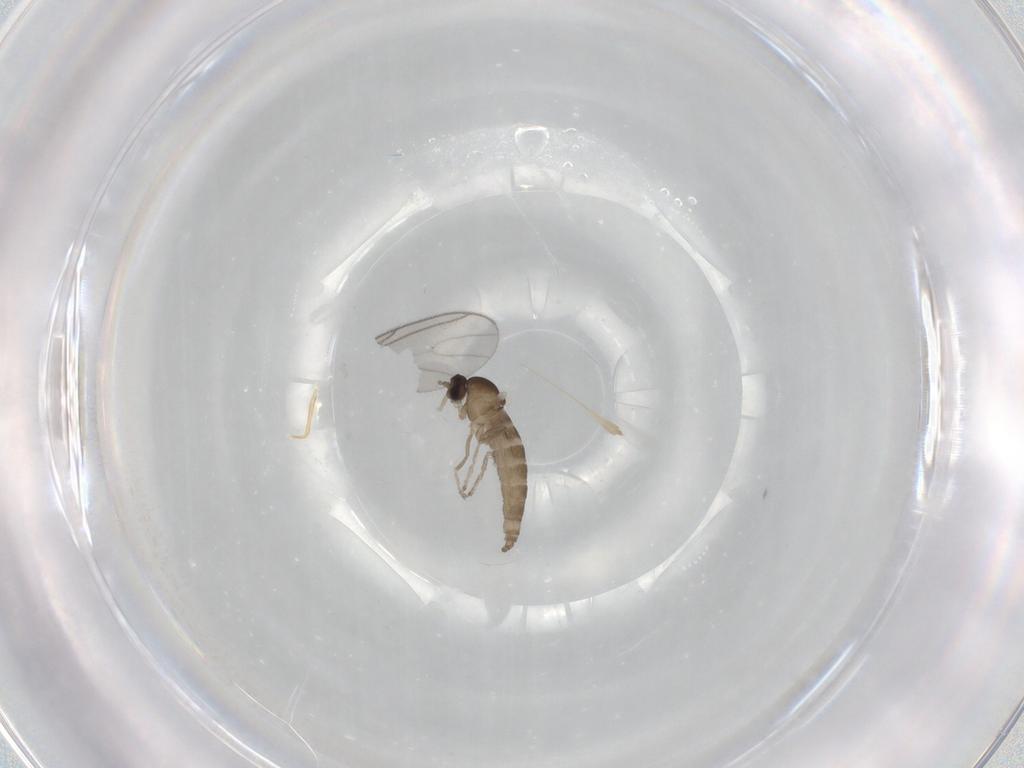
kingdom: Animalia
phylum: Arthropoda
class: Insecta
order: Diptera
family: Cecidomyiidae
